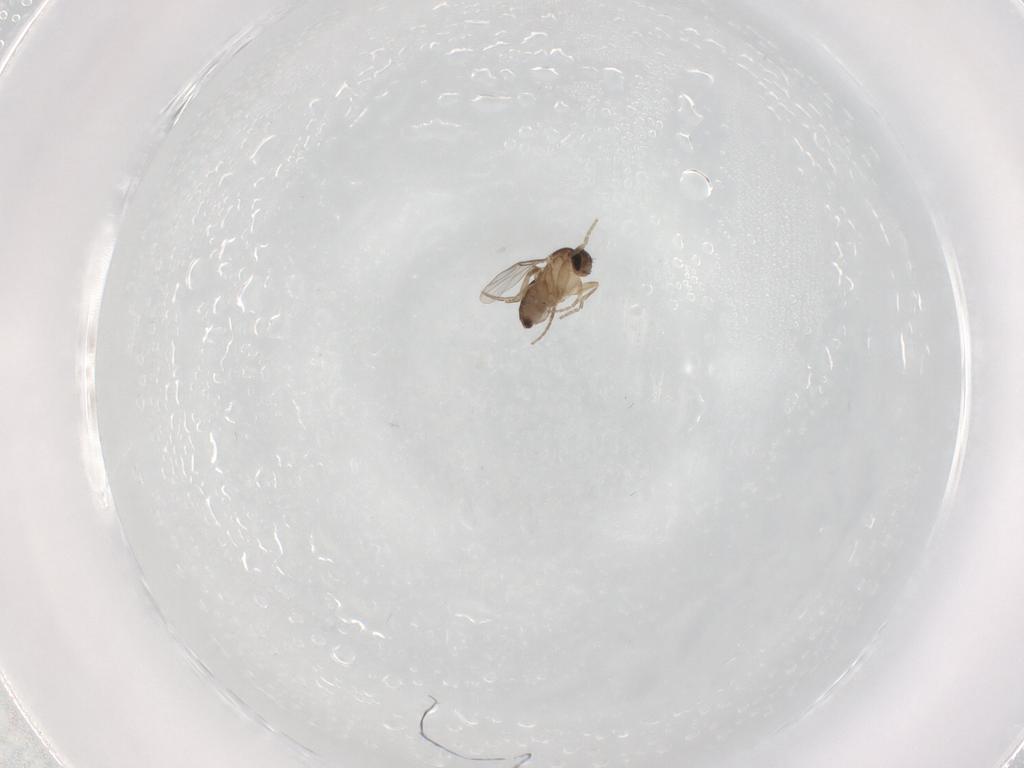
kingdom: Animalia
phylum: Arthropoda
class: Insecta
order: Diptera
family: Phoridae
